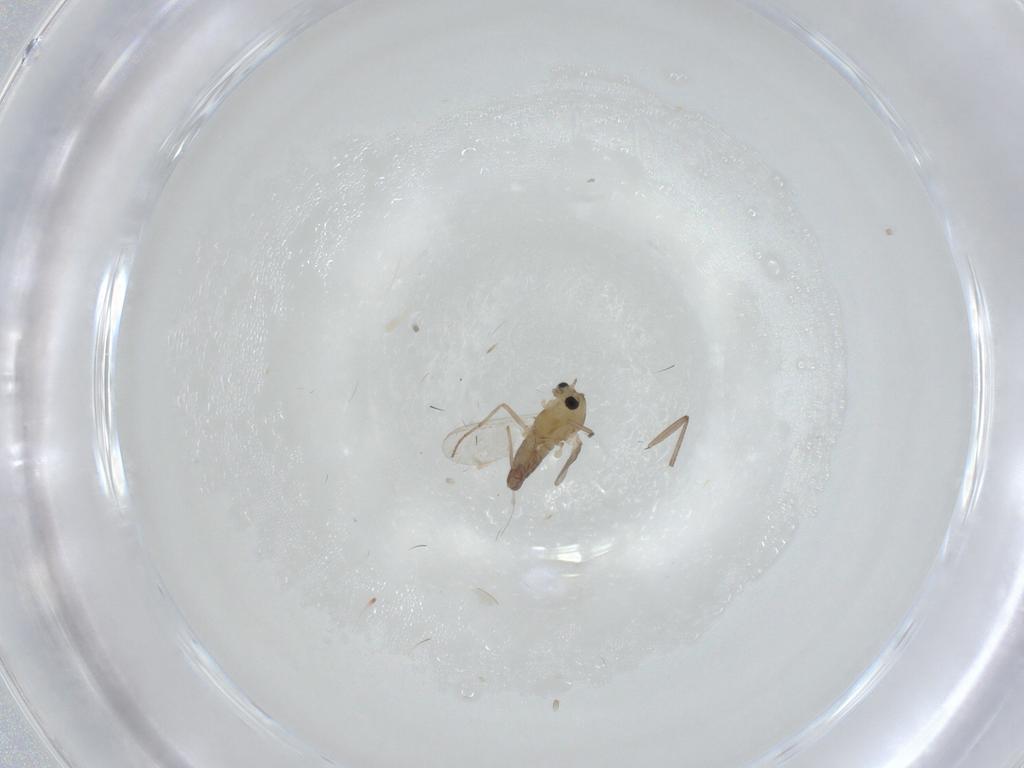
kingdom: Animalia
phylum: Arthropoda
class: Insecta
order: Diptera
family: Chironomidae
